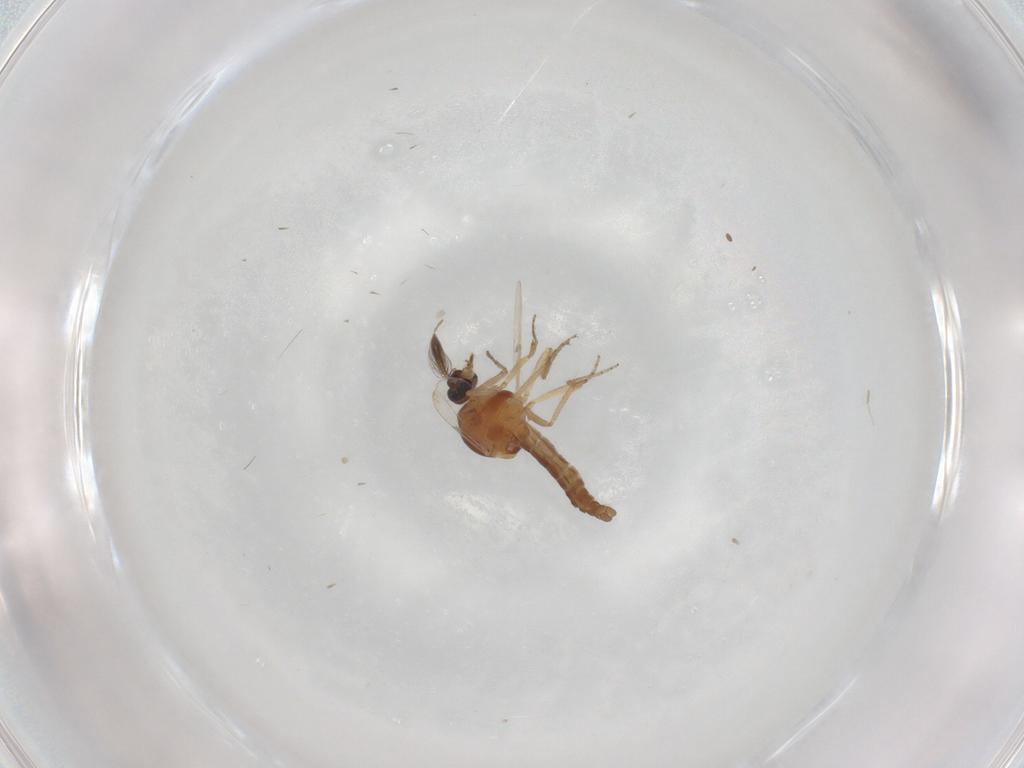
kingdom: Animalia
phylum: Arthropoda
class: Insecta
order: Diptera
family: Ceratopogonidae
